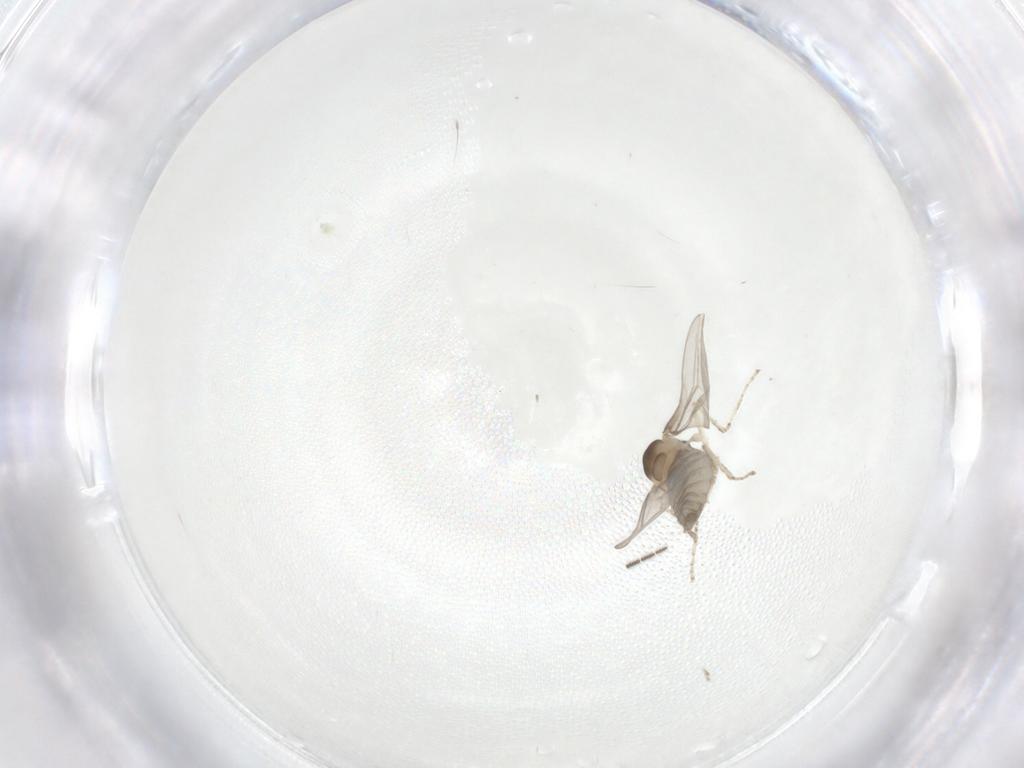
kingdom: Animalia
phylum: Arthropoda
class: Insecta
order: Diptera
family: Cecidomyiidae
